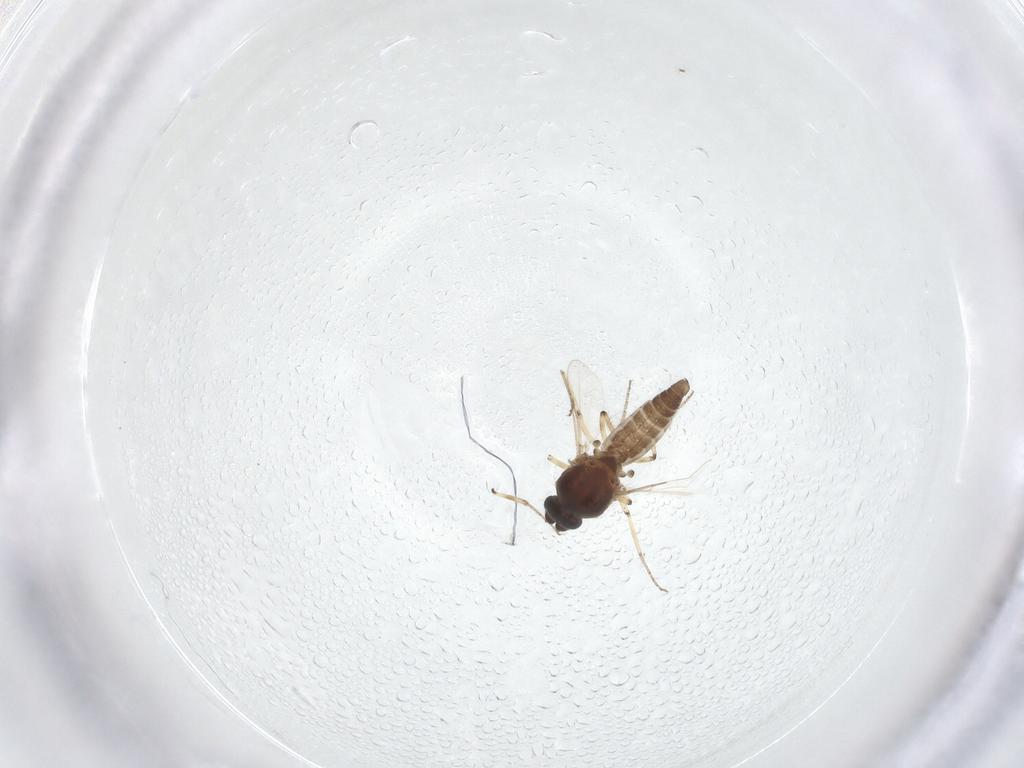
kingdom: Animalia
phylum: Arthropoda
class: Insecta
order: Diptera
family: Ceratopogonidae
